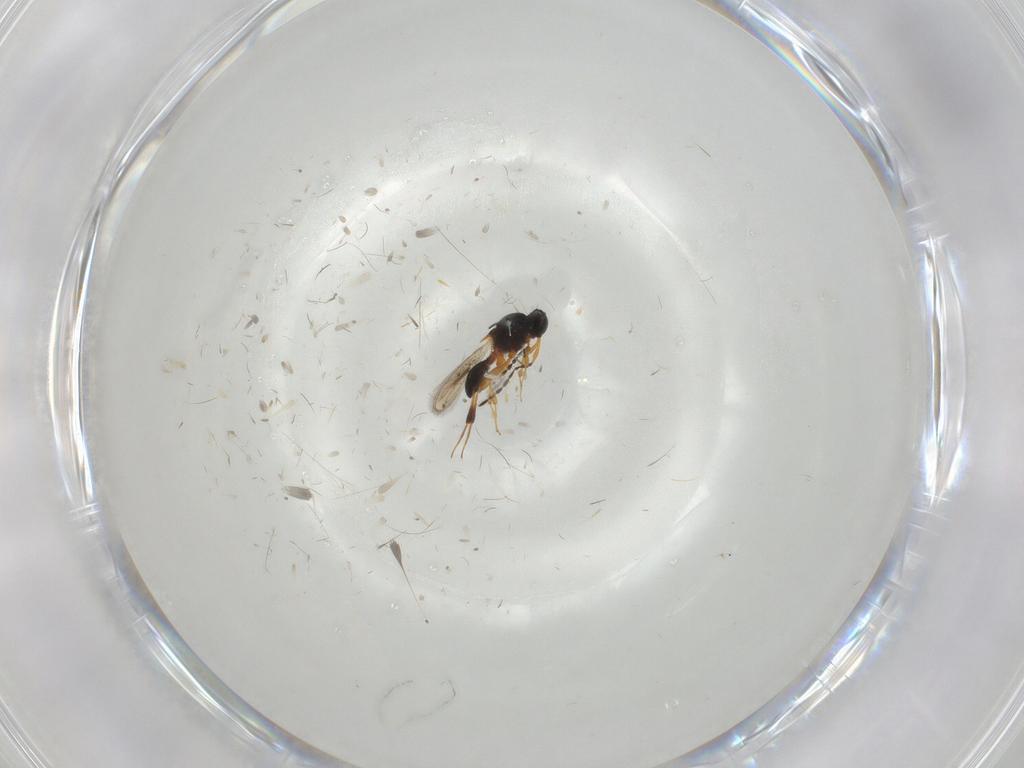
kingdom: Animalia
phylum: Arthropoda
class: Insecta
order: Hymenoptera
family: Platygastridae
